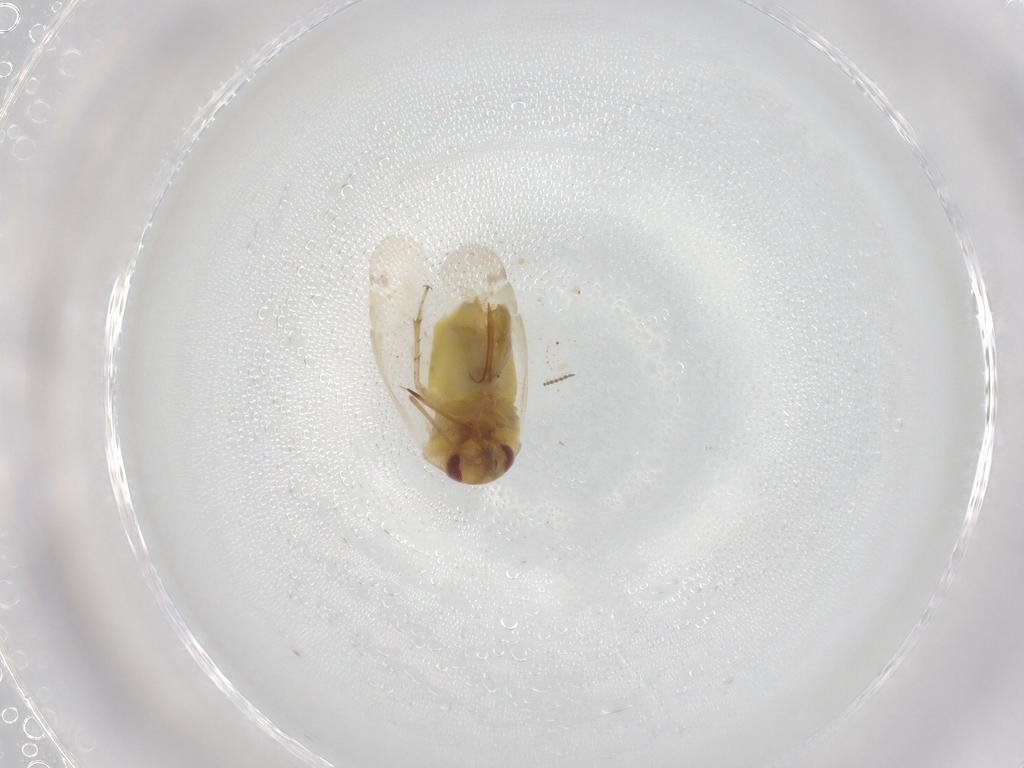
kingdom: Animalia
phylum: Arthropoda
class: Insecta
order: Hemiptera
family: Miridae
